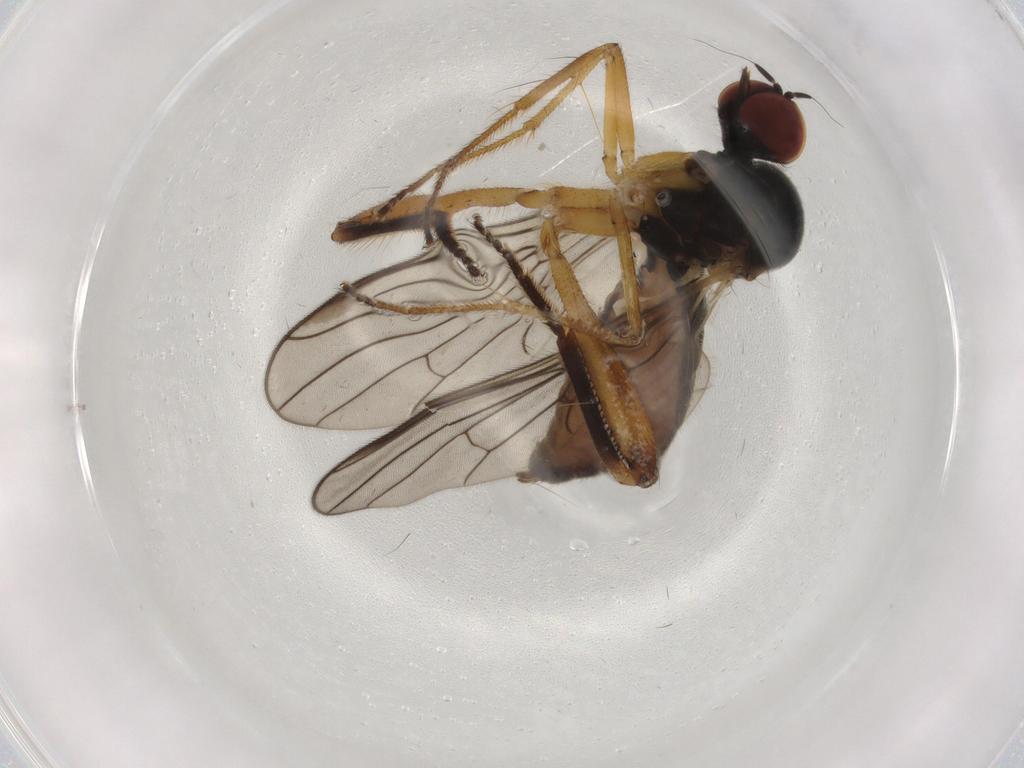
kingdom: Animalia
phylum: Arthropoda
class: Insecta
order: Diptera
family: Hybotidae
